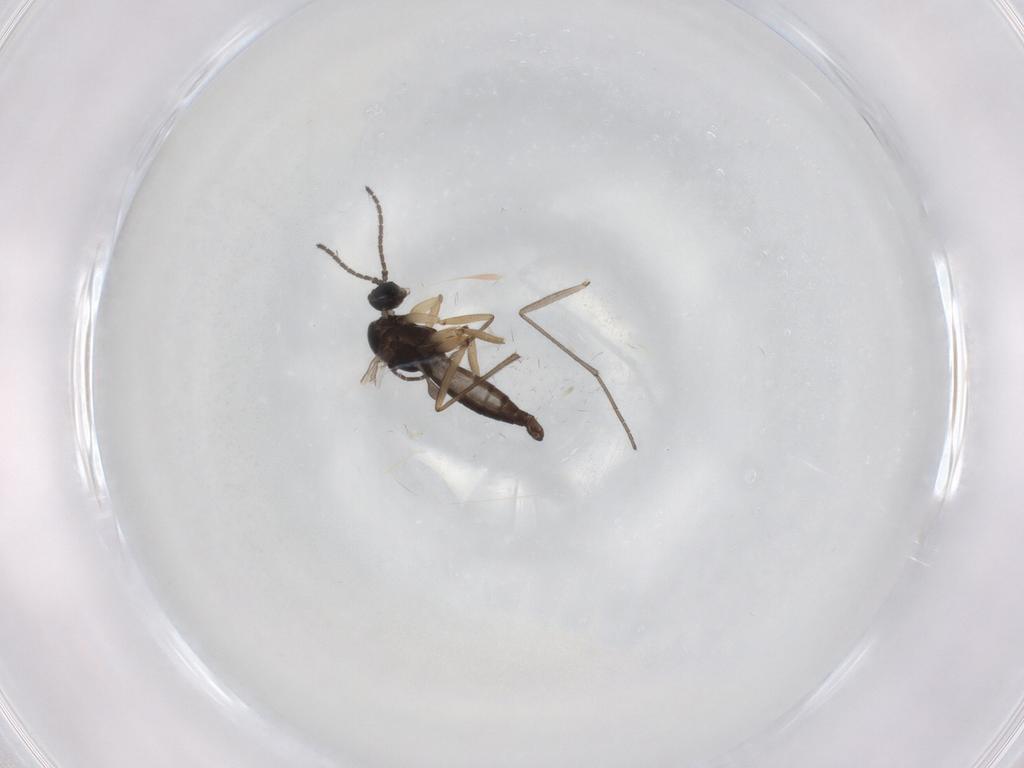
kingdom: Animalia
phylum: Arthropoda
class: Insecta
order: Diptera
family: Sciaridae
